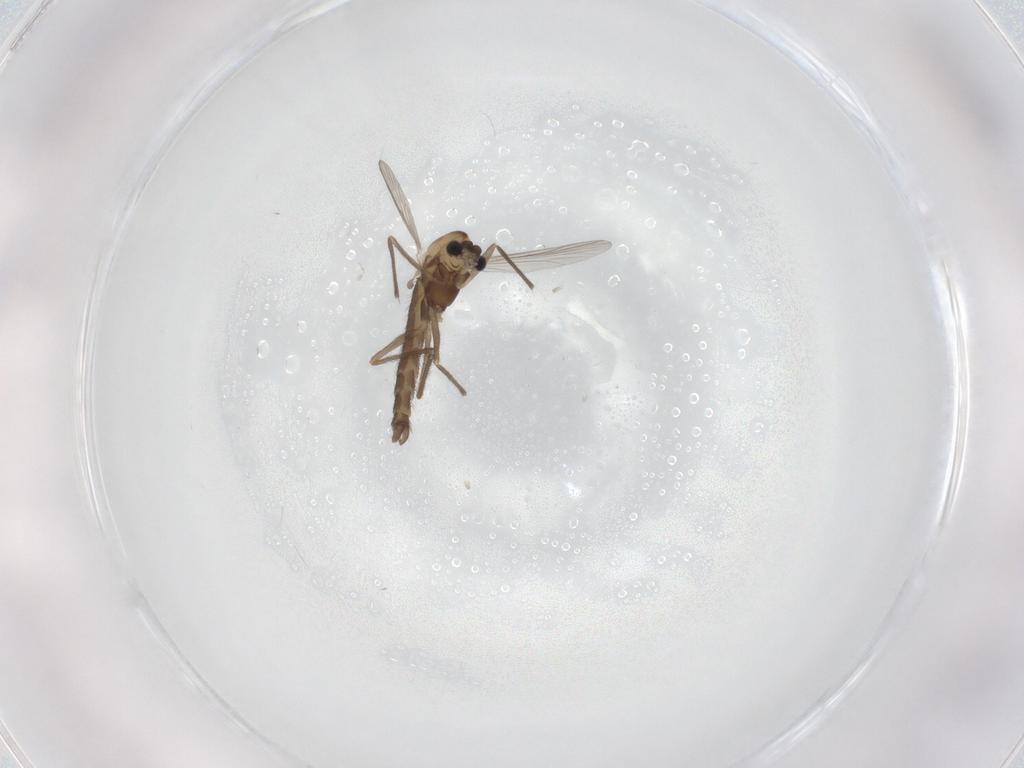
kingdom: Animalia
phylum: Arthropoda
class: Insecta
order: Diptera
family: Chironomidae
